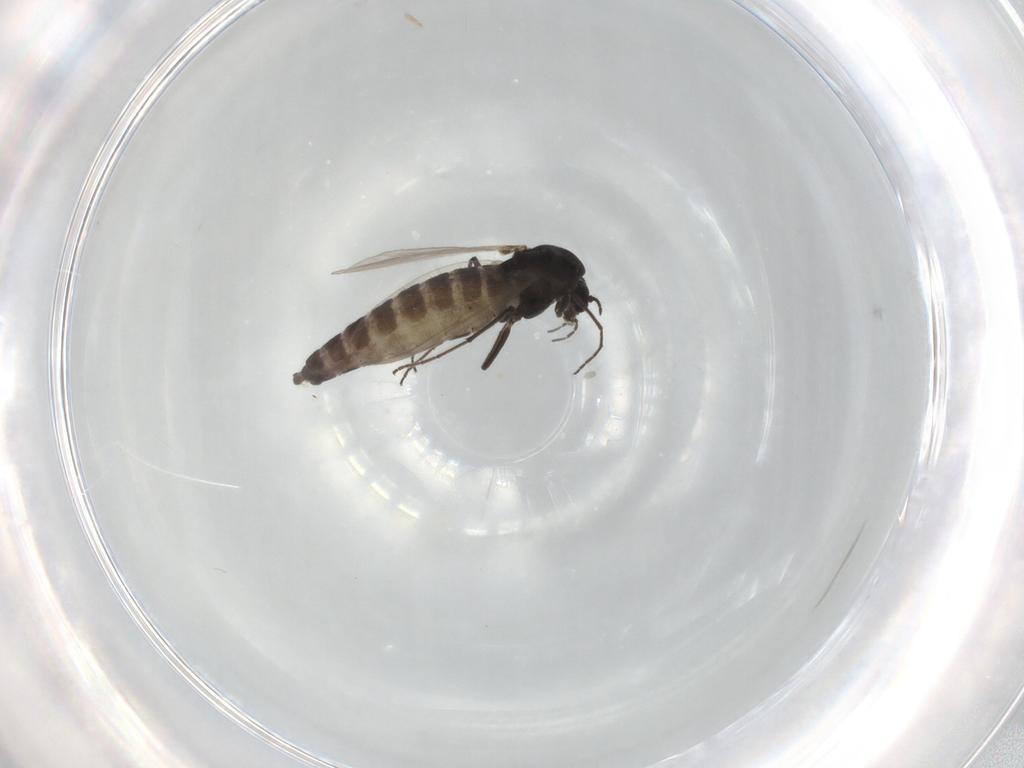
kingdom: Animalia
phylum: Arthropoda
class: Insecta
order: Diptera
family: Chironomidae
